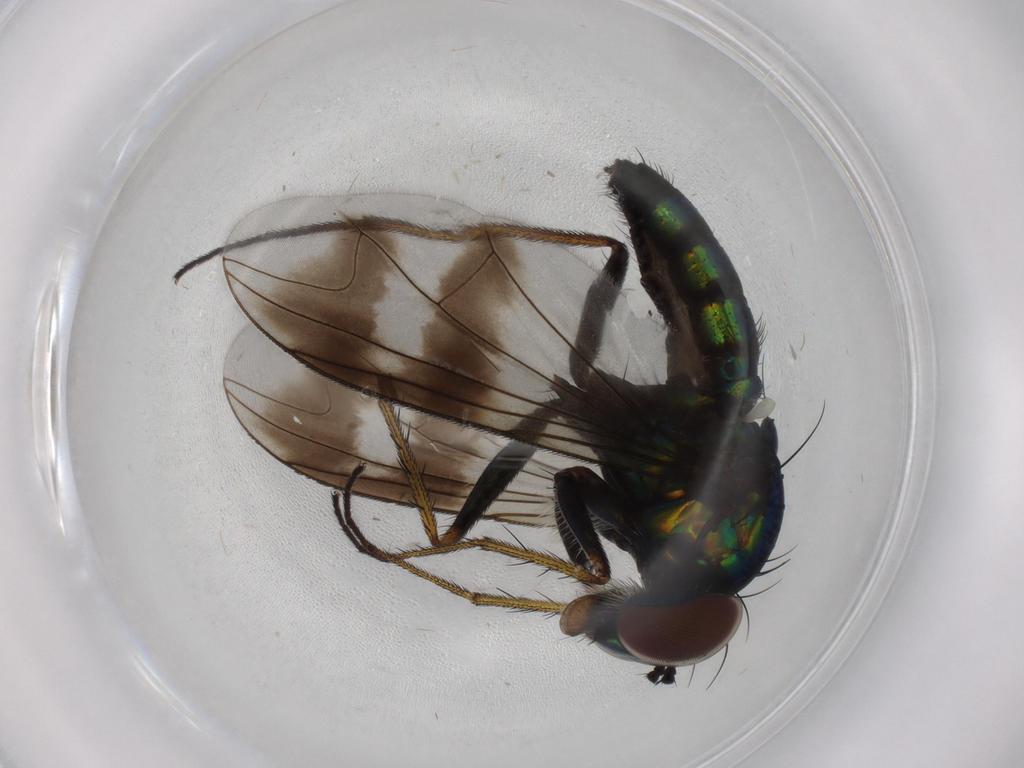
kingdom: Animalia
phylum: Arthropoda
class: Insecta
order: Diptera
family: Dolichopodidae
